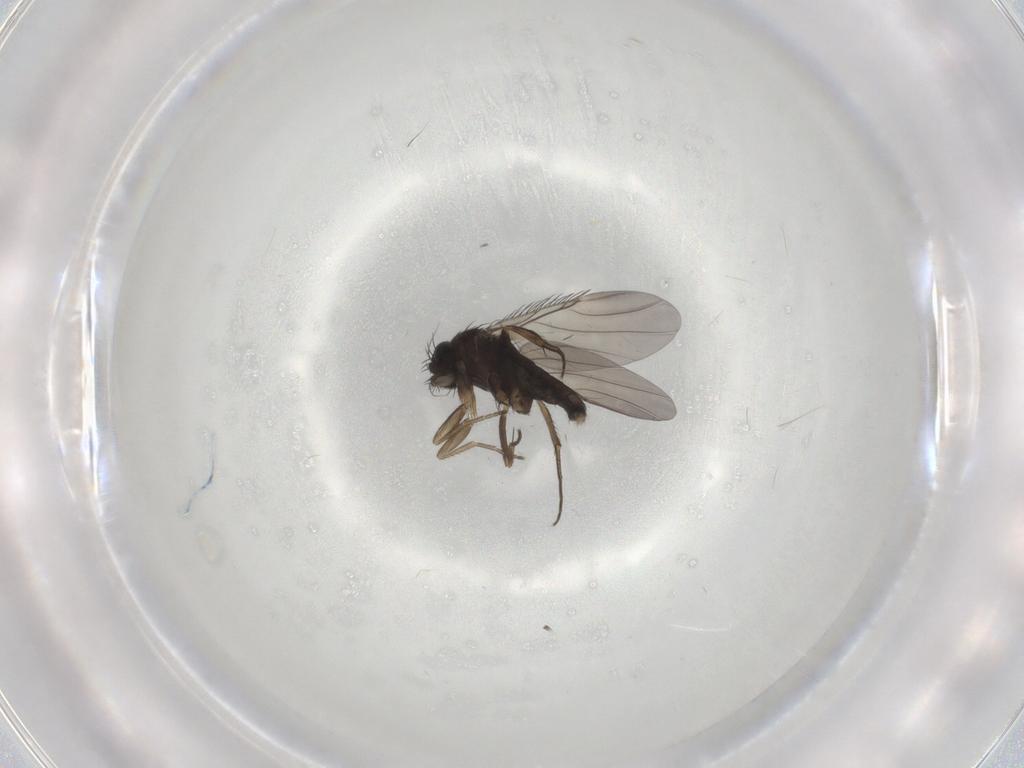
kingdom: Animalia
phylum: Arthropoda
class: Insecta
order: Diptera
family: Phoridae
